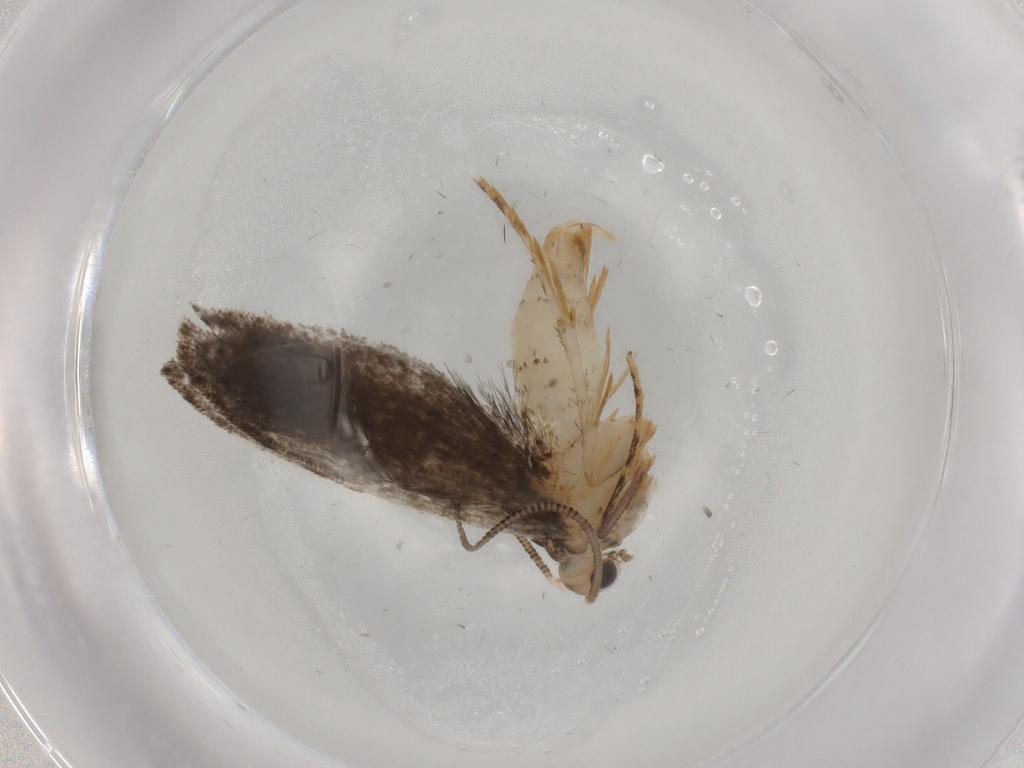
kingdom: Animalia
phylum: Arthropoda
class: Insecta
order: Lepidoptera
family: Tineidae
